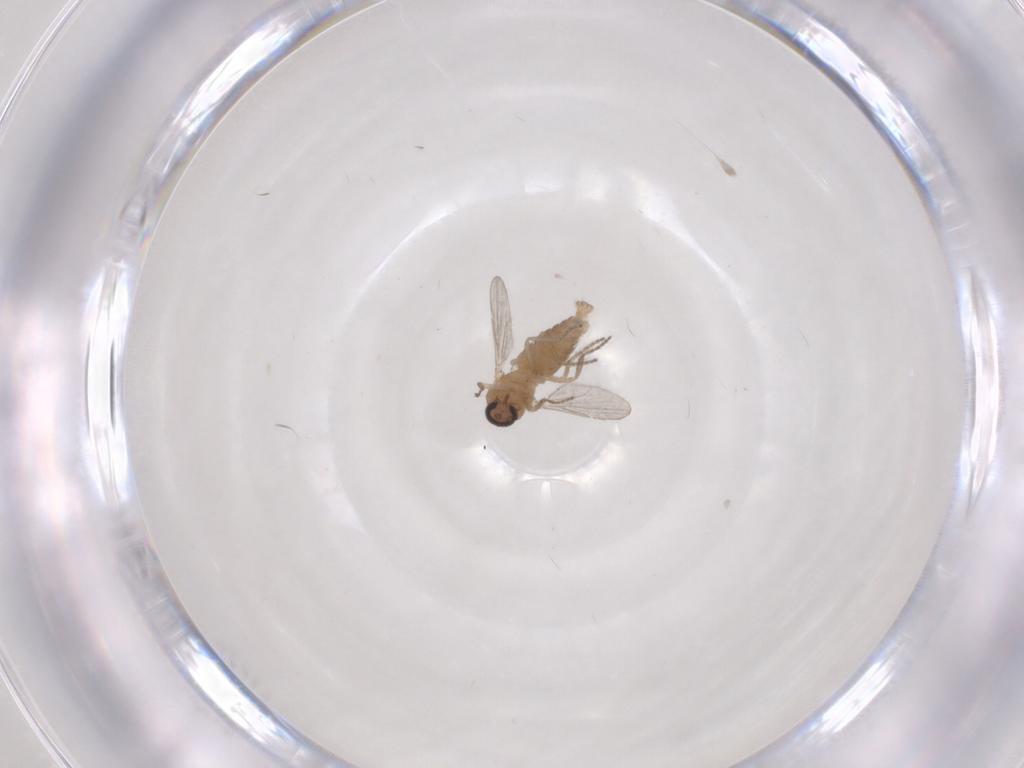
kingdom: Animalia
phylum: Arthropoda
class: Insecta
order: Diptera
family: Ceratopogonidae
